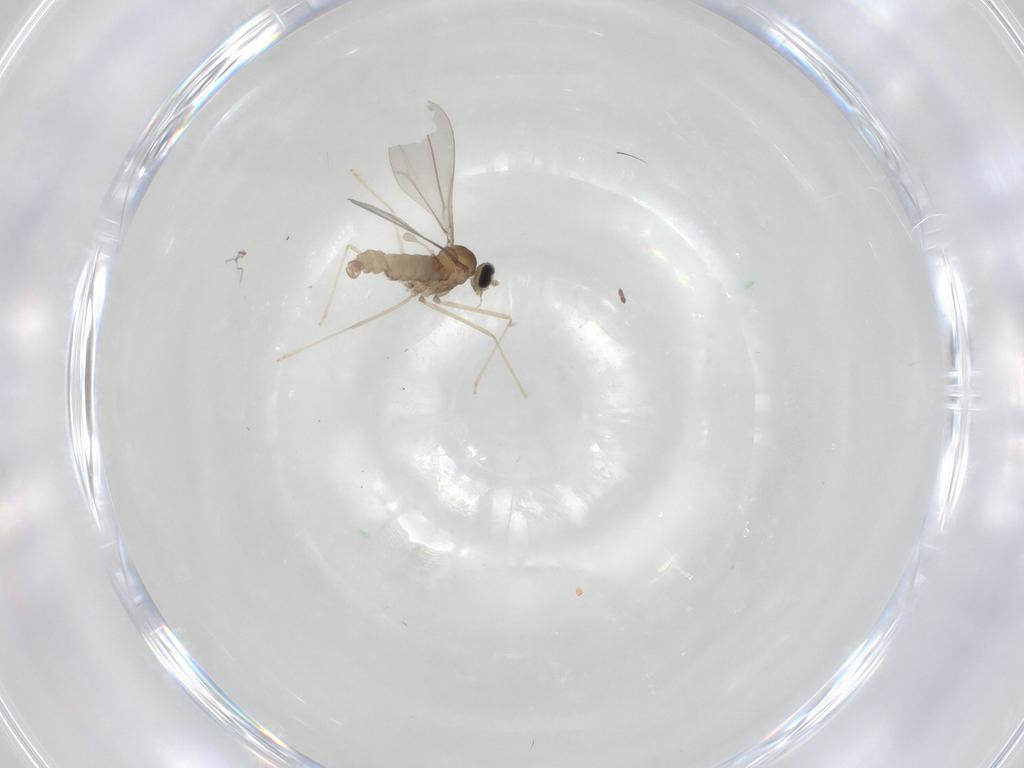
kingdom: Animalia
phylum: Arthropoda
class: Insecta
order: Diptera
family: Cecidomyiidae
